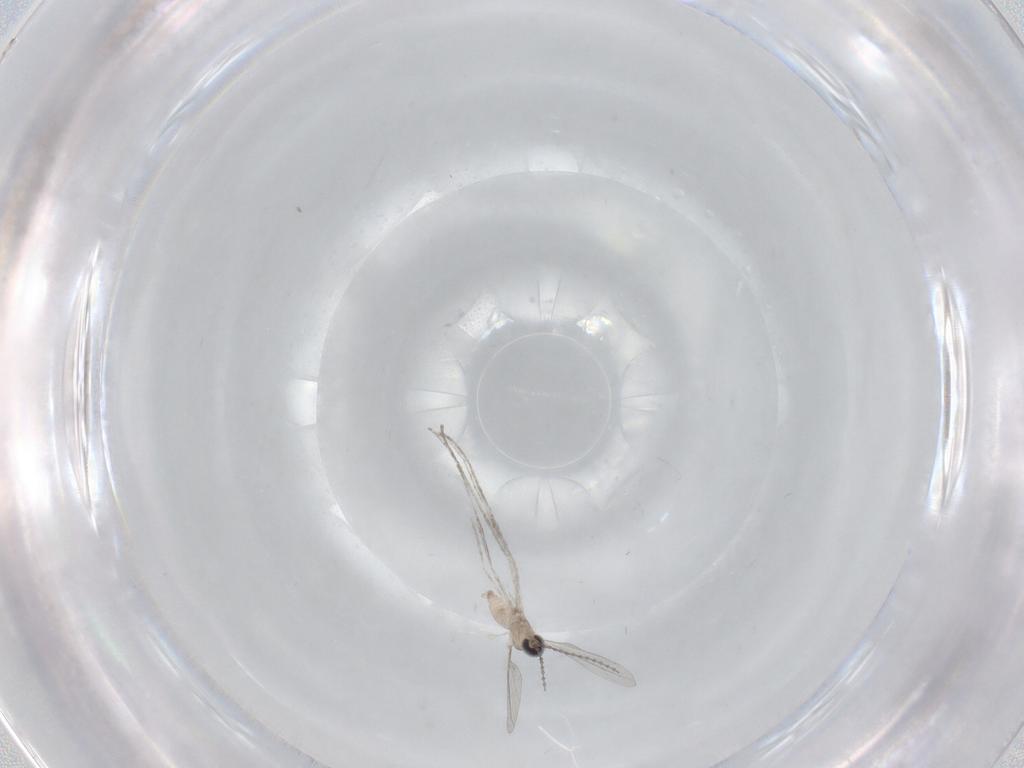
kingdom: Animalia
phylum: Arthropoda
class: Insecta
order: Diptera
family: Cecidomyiidae
